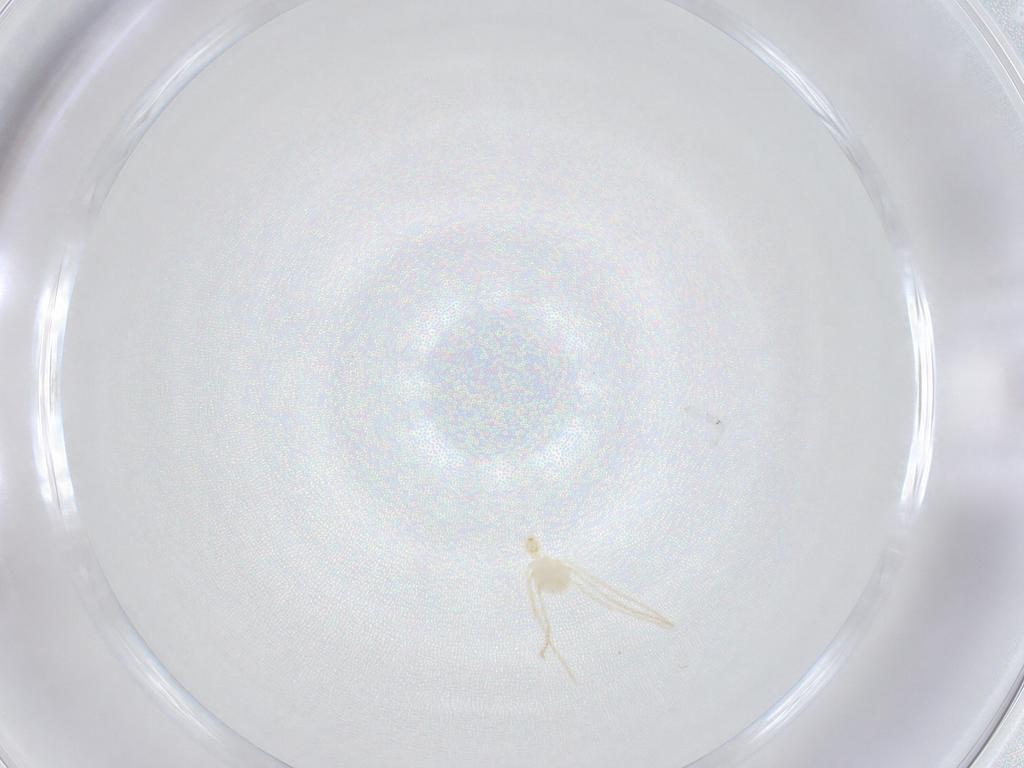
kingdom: Animalia
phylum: Arthropoda
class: Arachnida
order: Trombidiformes
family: Erythraeidae
